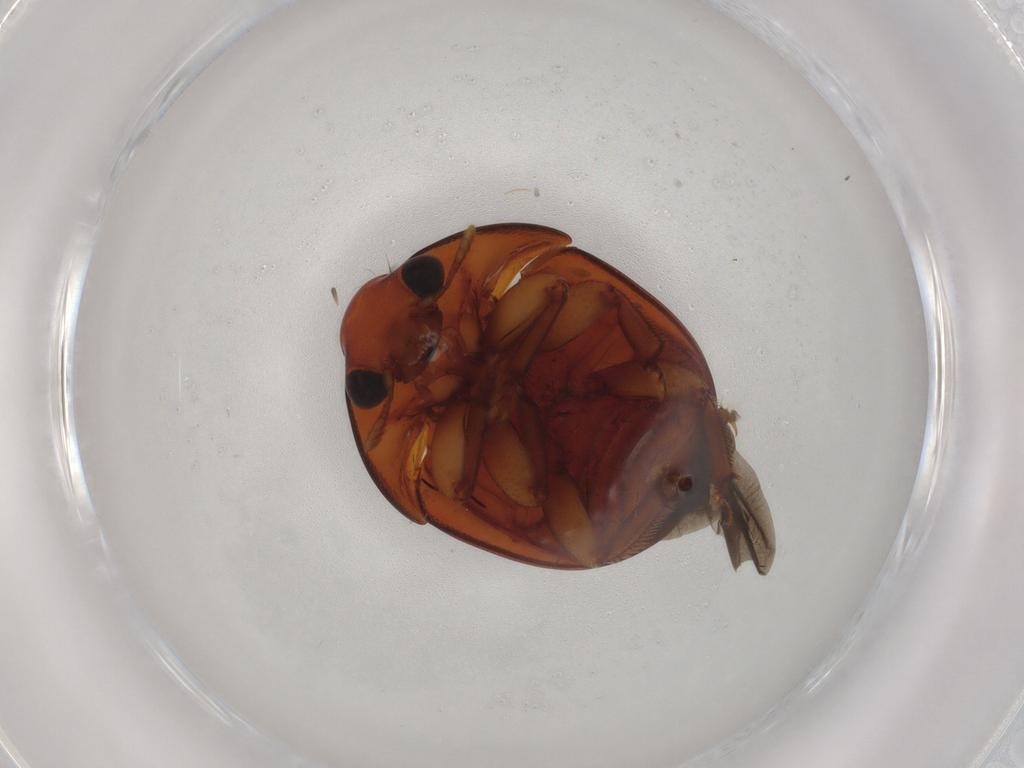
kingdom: Animalia
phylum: Arthropoda
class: Insecta
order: Coleoptera
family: Nitidulidae
